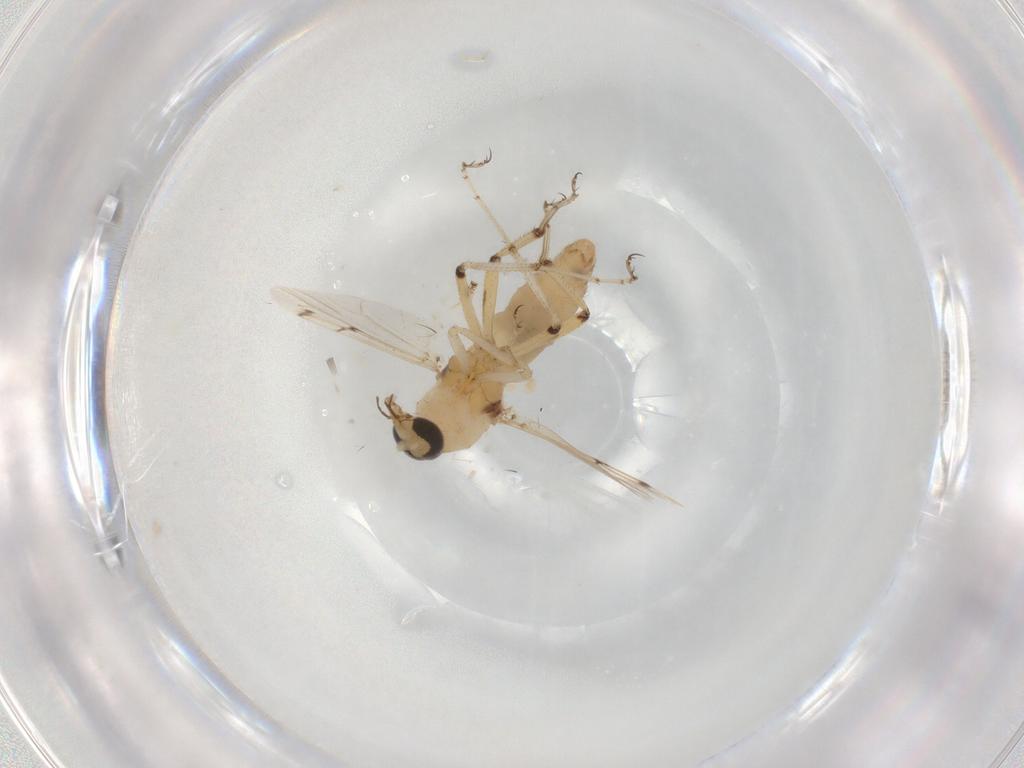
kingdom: Animalia
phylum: Arthropoda
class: Insecta
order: Diptera
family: Ceratopogonidae
